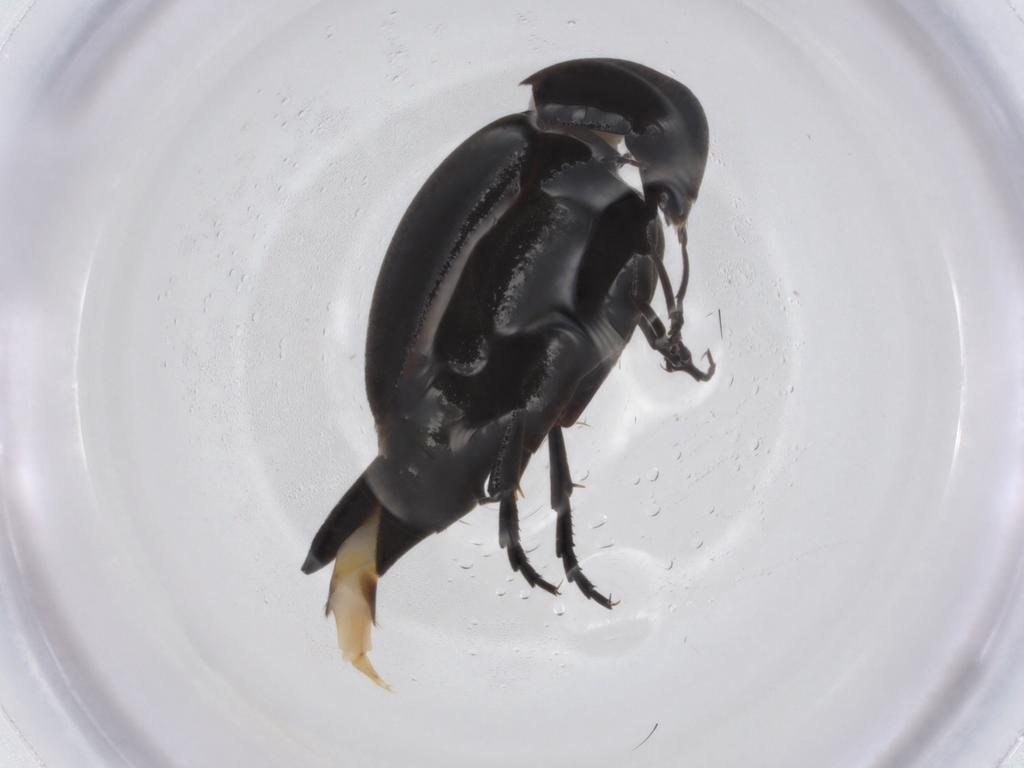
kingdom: Animalia
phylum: Arthropoda
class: Insecta
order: Coleoptera
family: Mordellidae
